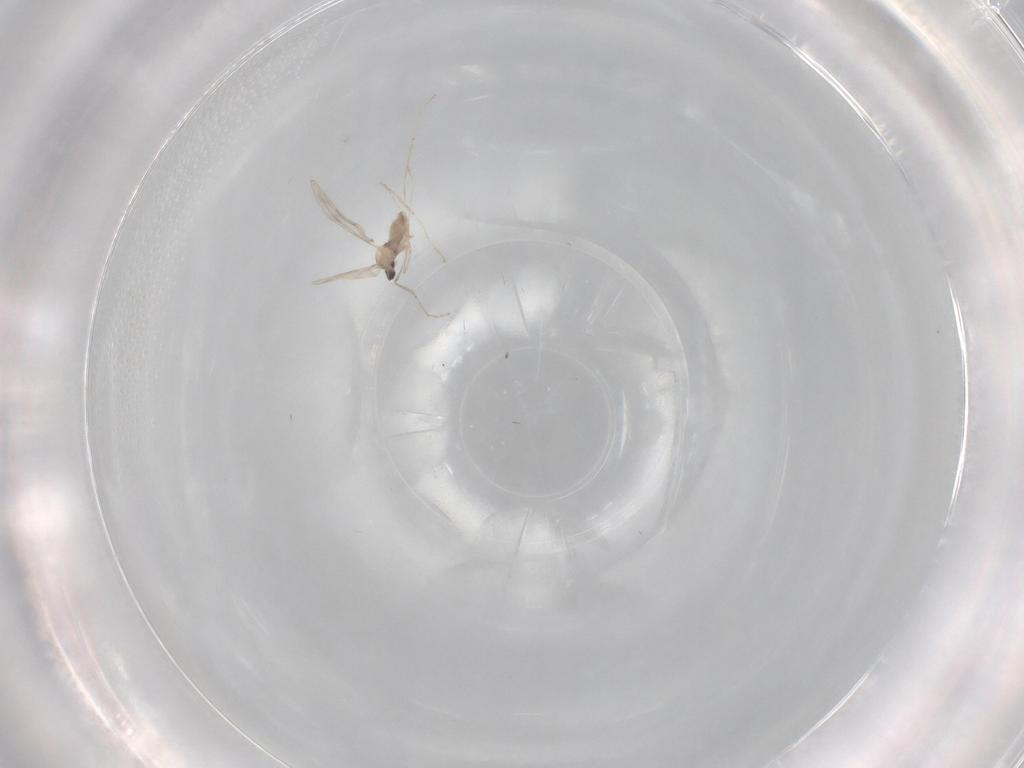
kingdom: Animalia
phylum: Arthropoda
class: Insecta
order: Diptera
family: Cecidomyiidae
